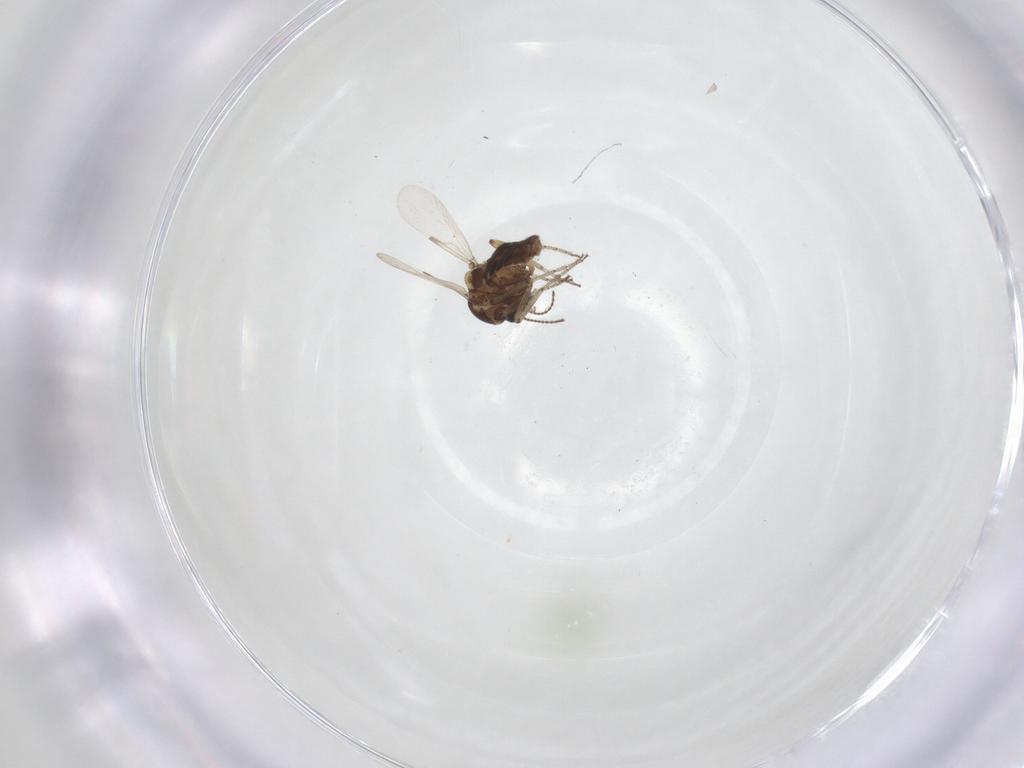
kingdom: Animalia
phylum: Arthropoda
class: Insecta
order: Diptera
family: Ceratopogonidae
